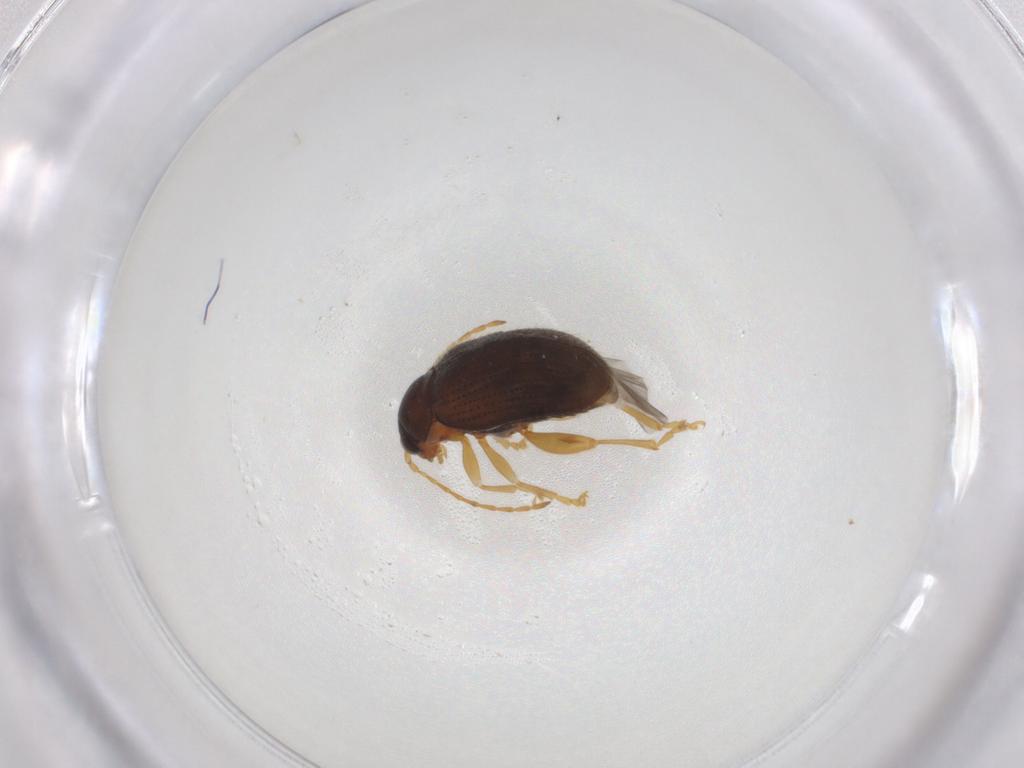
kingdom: Animalia
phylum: Arthropoda
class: Insecta
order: Coleoptera
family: Chrysomelidae
